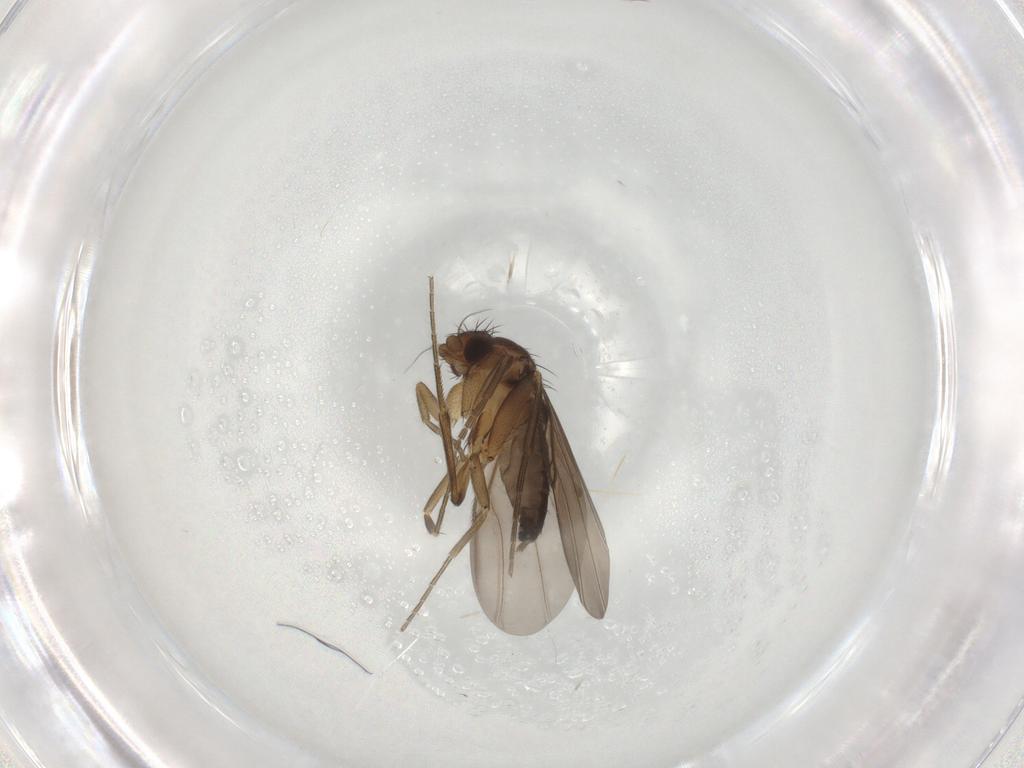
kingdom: Animalia
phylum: Arthropoda
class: Insecta
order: Diptera
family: Phoridae
